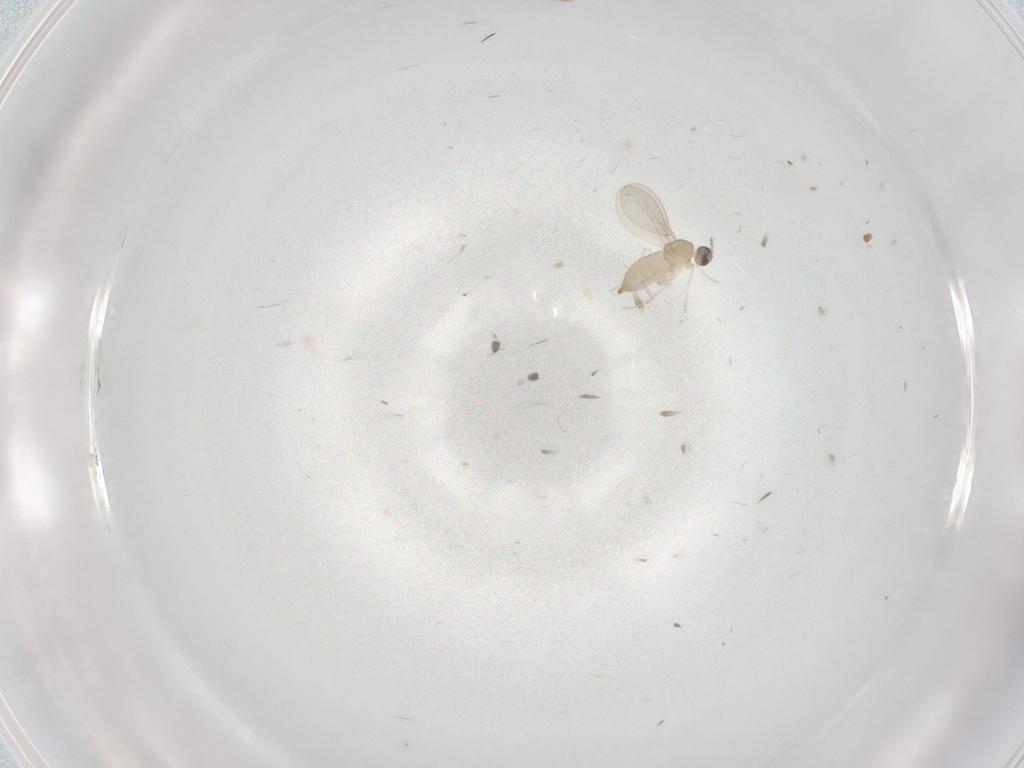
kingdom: Animalia
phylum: Arthropoda
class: Insecta
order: Diptera
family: Cecidomyiidae
